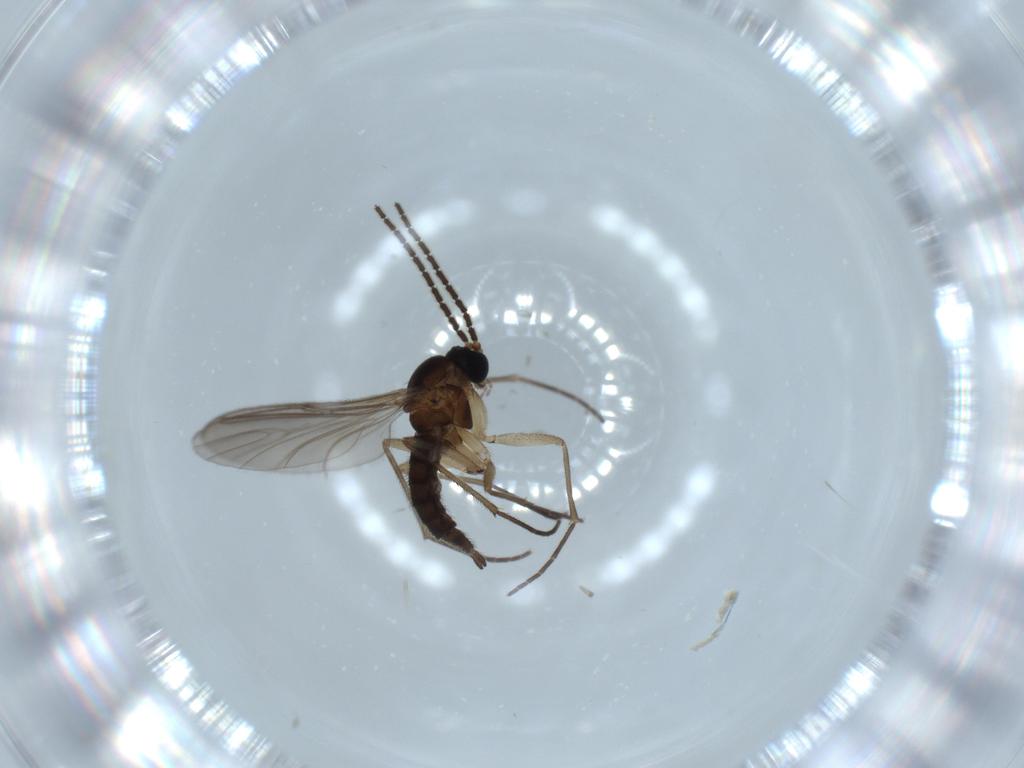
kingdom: Animalia
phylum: Arthropoda
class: Insecta
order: Diptera
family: Sciaridae
